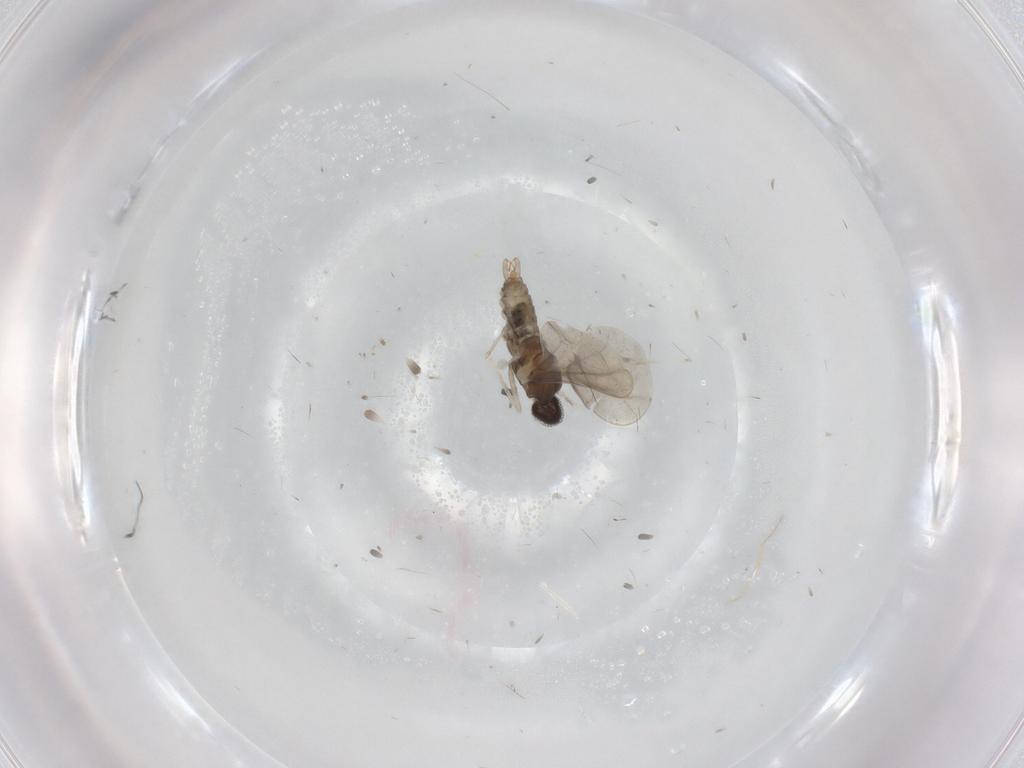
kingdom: Animalia
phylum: Arthropoda
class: Insecta
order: Diptera
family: Cecidomyiidae
